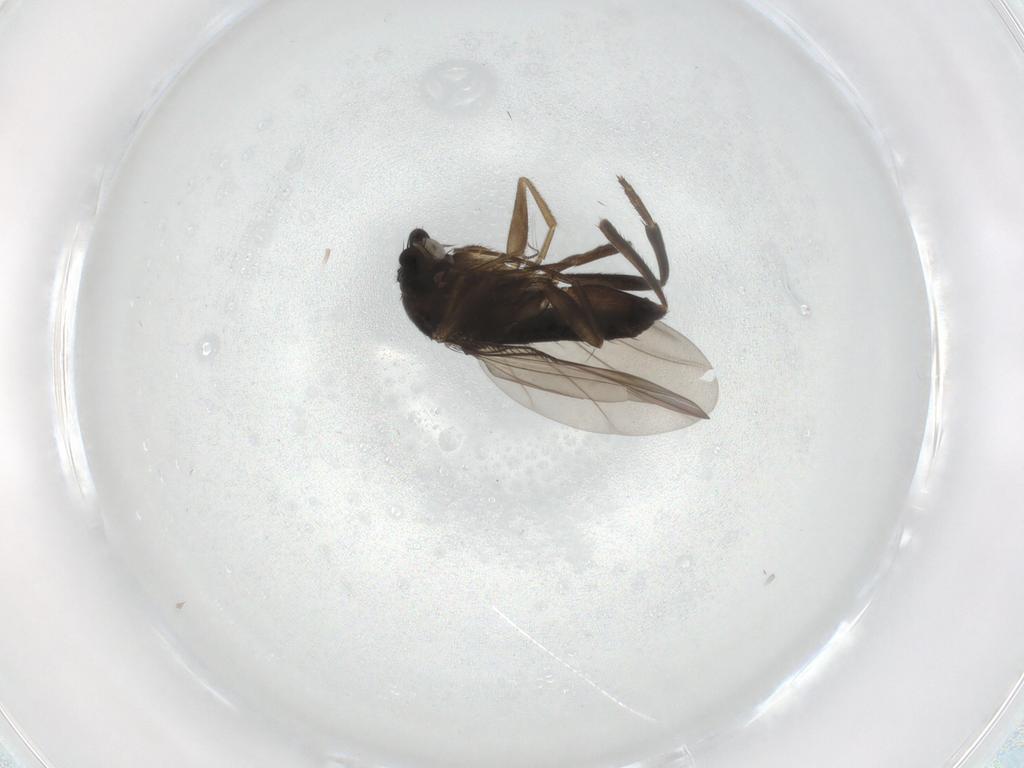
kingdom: Animalia
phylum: Arthropoda
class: Insecta
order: Diptera
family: Phoridae
